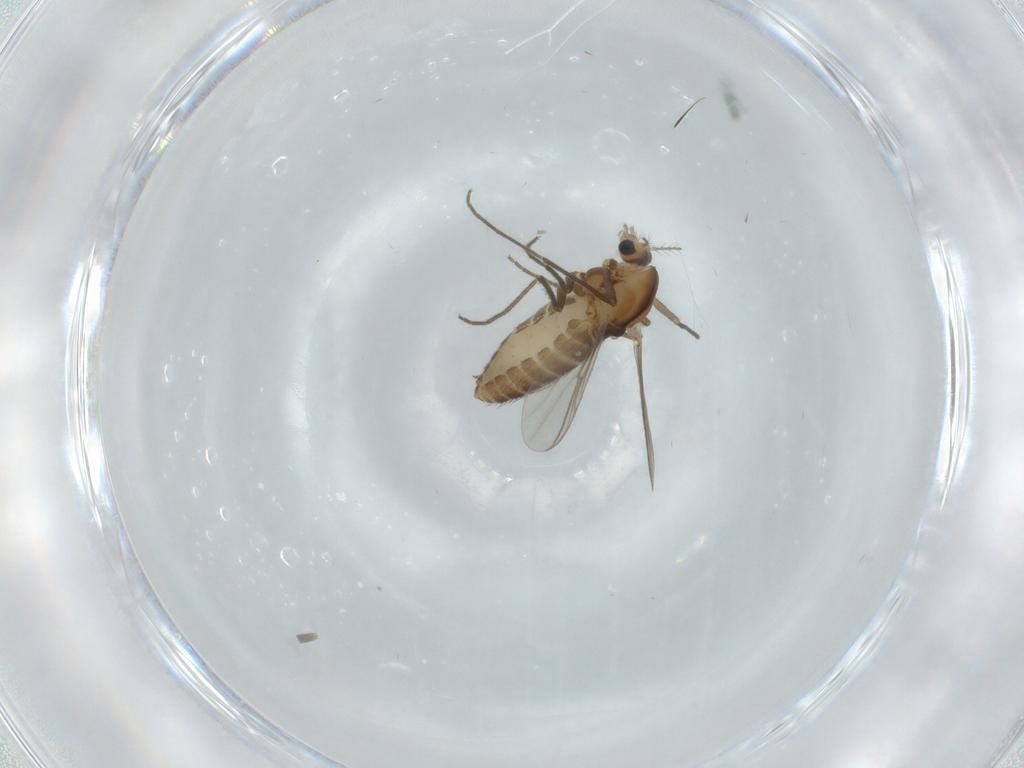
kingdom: Animalia
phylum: Arthropoda
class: Insecta
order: Diptera
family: Chironomidae
